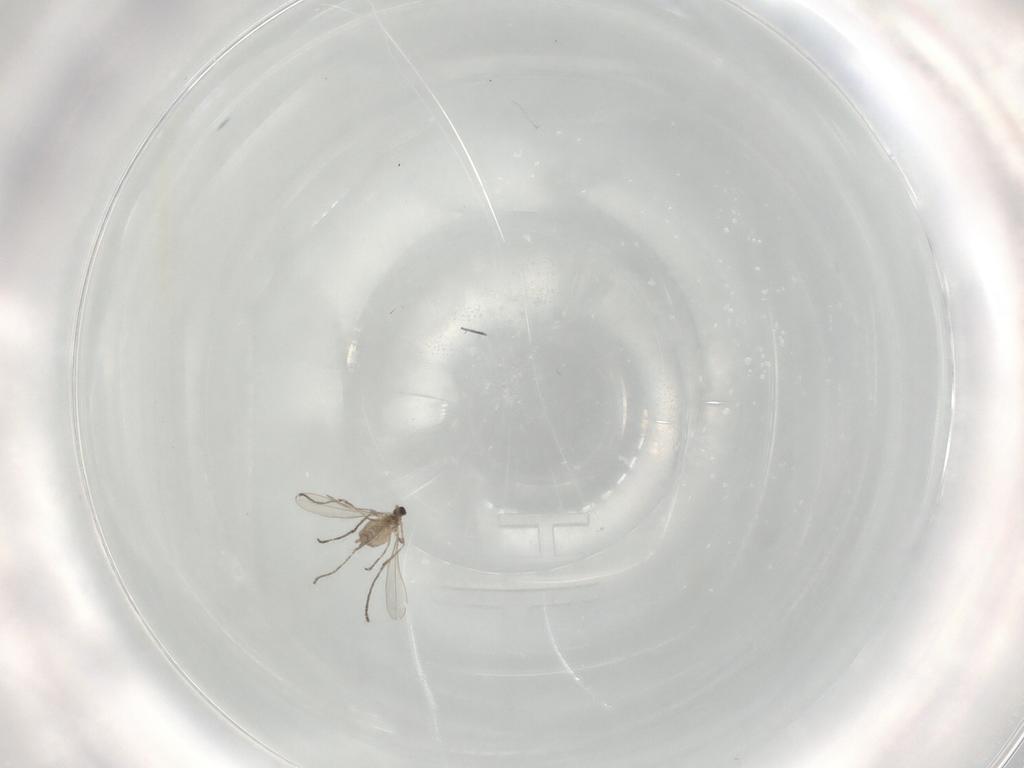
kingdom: Animalia
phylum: Arthropoda
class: Insecta
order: Diptera
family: Cecidomyiidae
